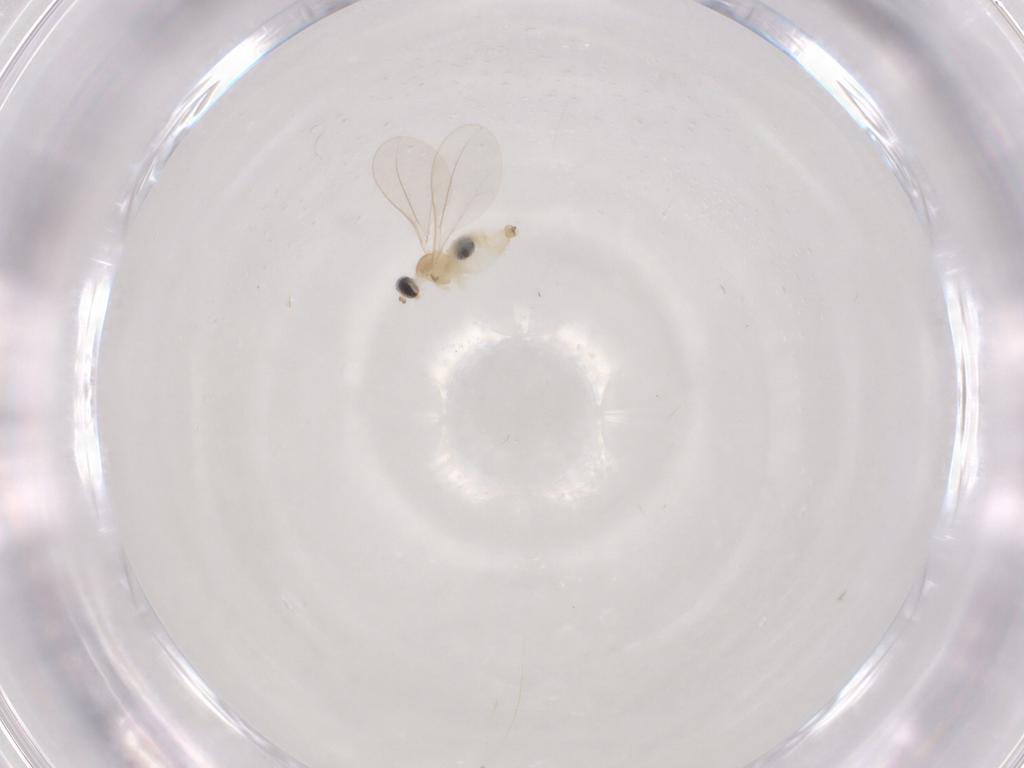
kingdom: Animalia
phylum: Arthropoda
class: Insecta
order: Diptera
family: Cecidomyiidae
